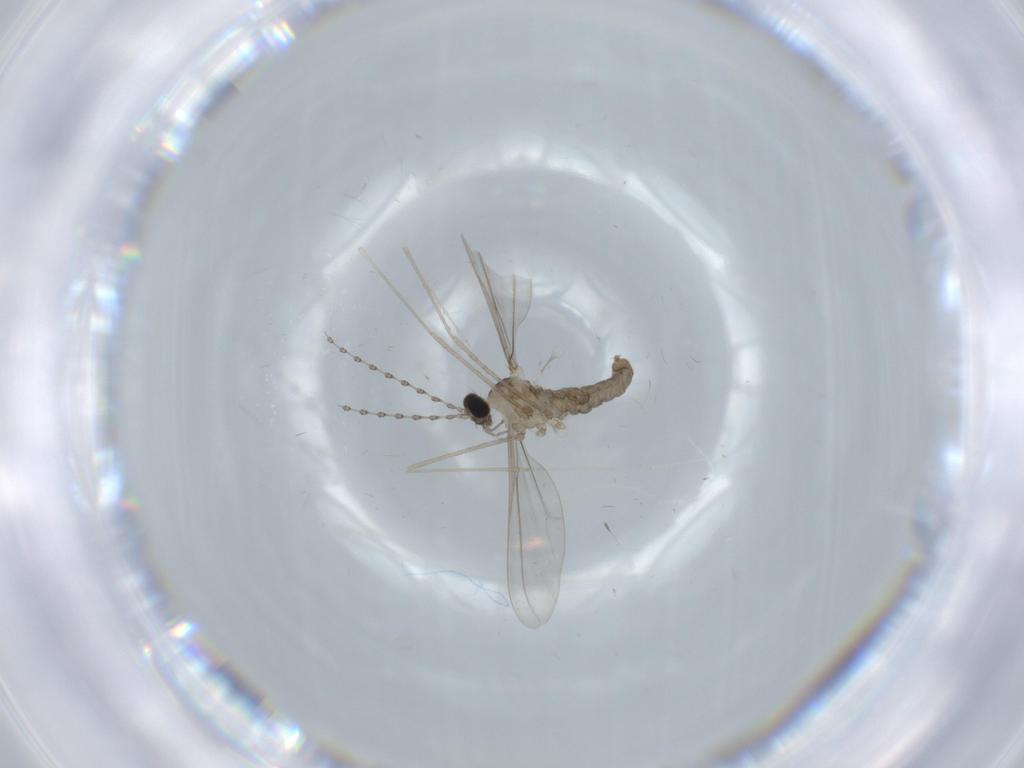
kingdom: Animalia
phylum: Arthropoda
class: Insecta
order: Diptera
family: Cecidomyiidae
